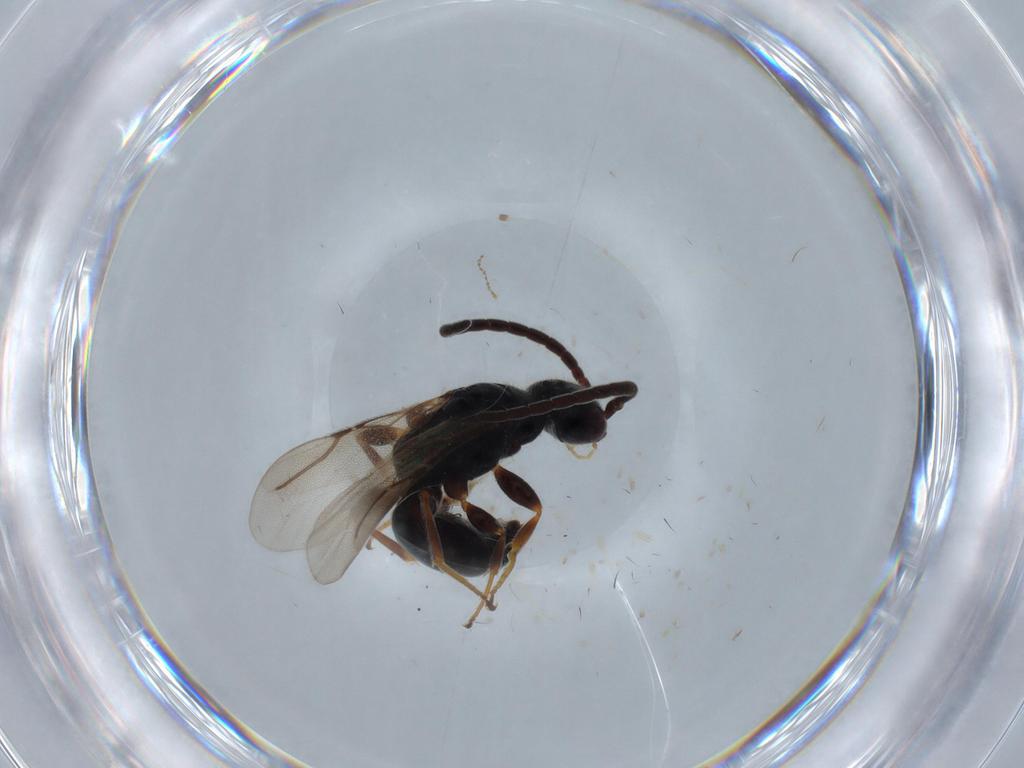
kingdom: Animalia
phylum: Arthropoda
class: Insecta
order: Hymenoptera
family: Bethylidae
